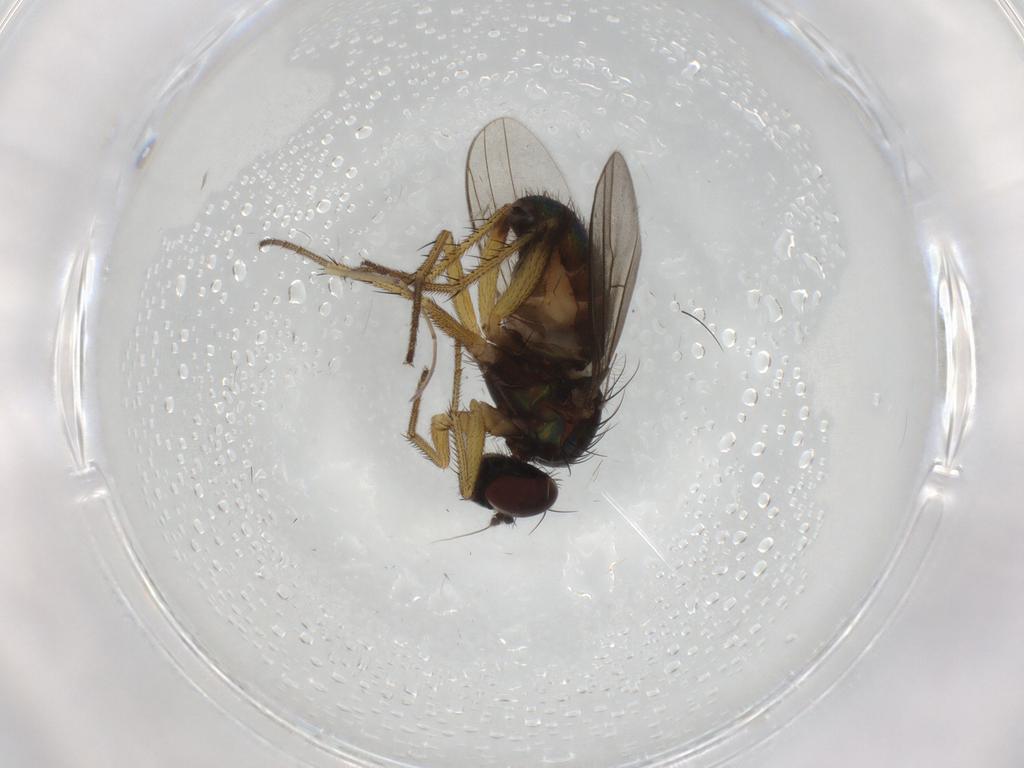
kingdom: Animalia
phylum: Arthropoda
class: Insecta
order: Diptera
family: Dolichopodidae
